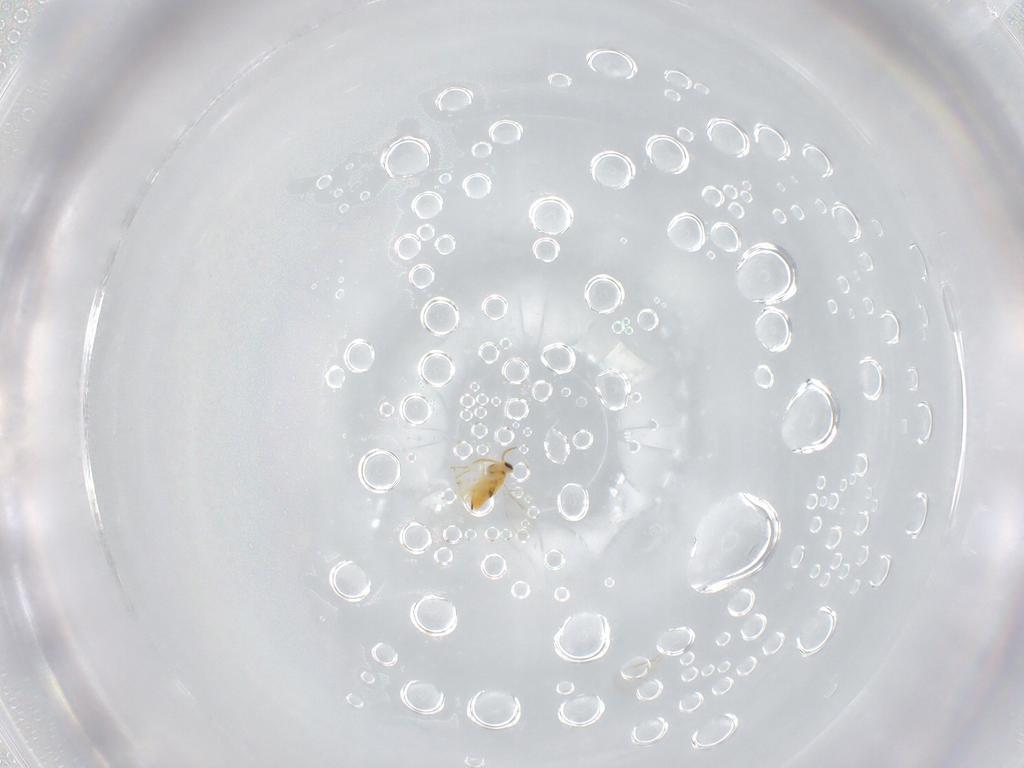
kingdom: Animalia
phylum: Arthropoda
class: Insecta
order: Hymenoptera
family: Aphelinidae
